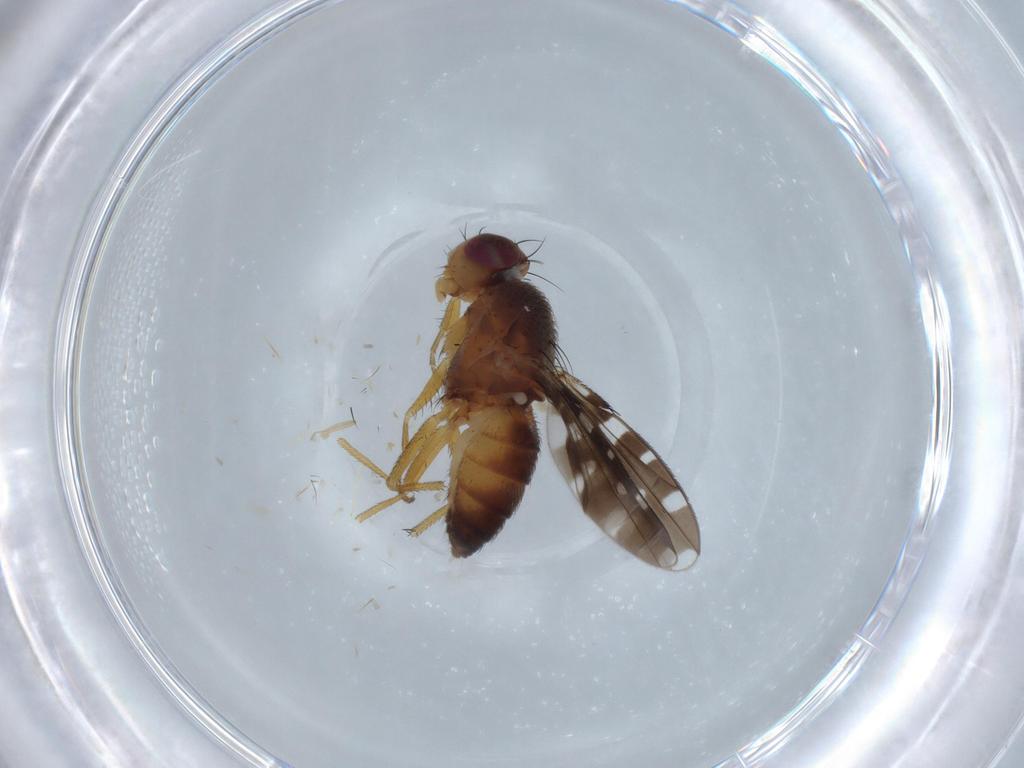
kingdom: Animalia
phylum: Arthropoda
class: Insecta
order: Diptera
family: Ephydridae
